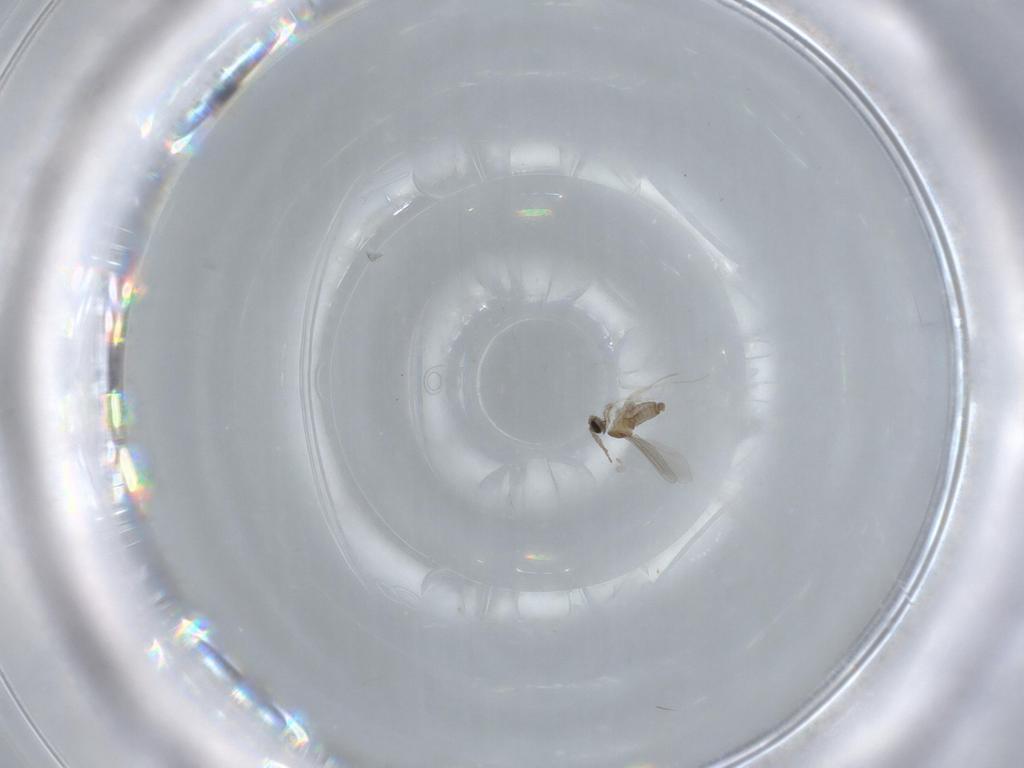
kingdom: Animalia
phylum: Arthropoda
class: Insecta
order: Diptera
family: Cecidomyiidae
